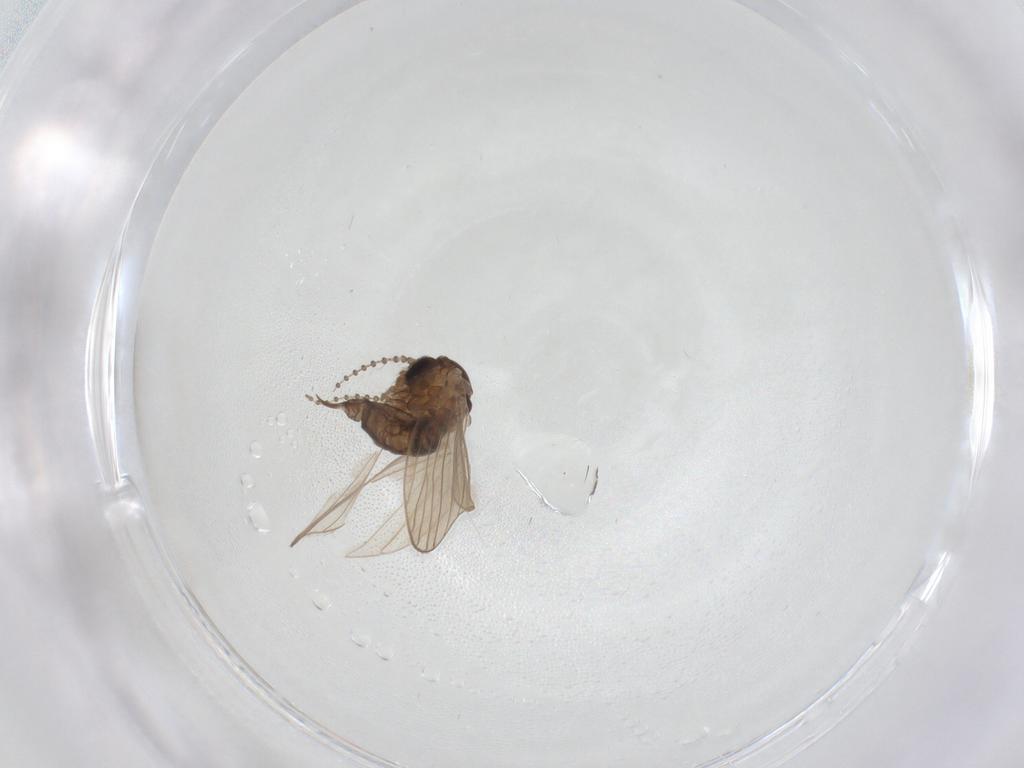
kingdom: Animalia
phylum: Arthropoda
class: Insecta
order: Diptera
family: Psychodidae
